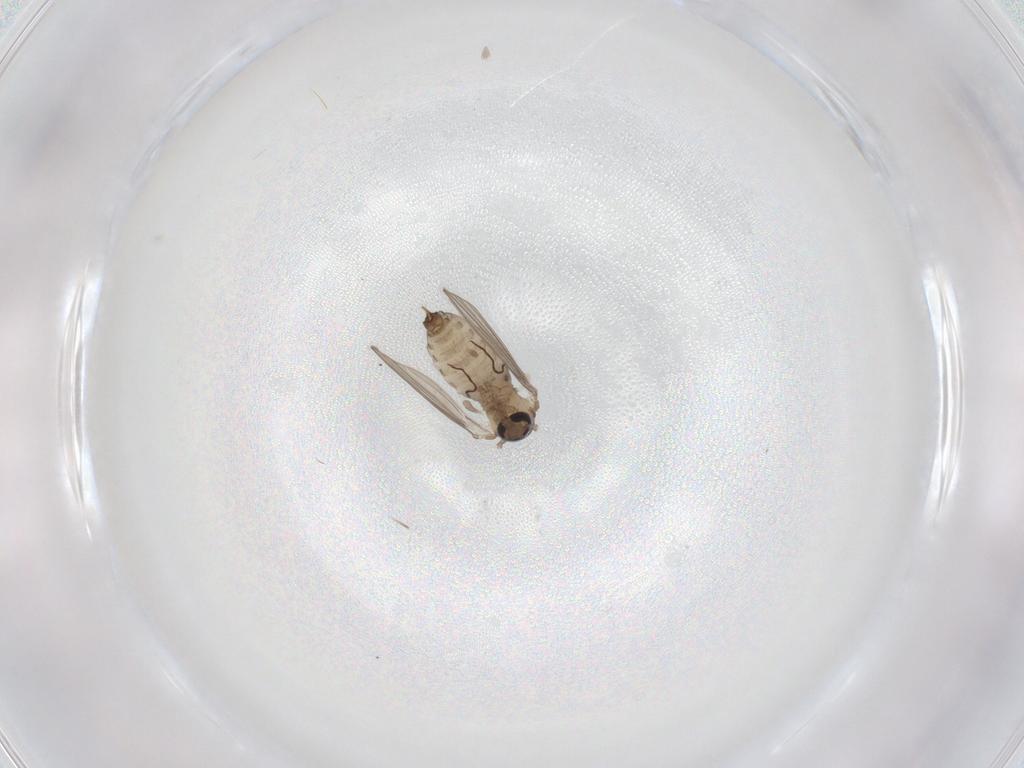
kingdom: Animalia
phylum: Arthropoda
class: Insecta
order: Diptera
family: Psychodidae
